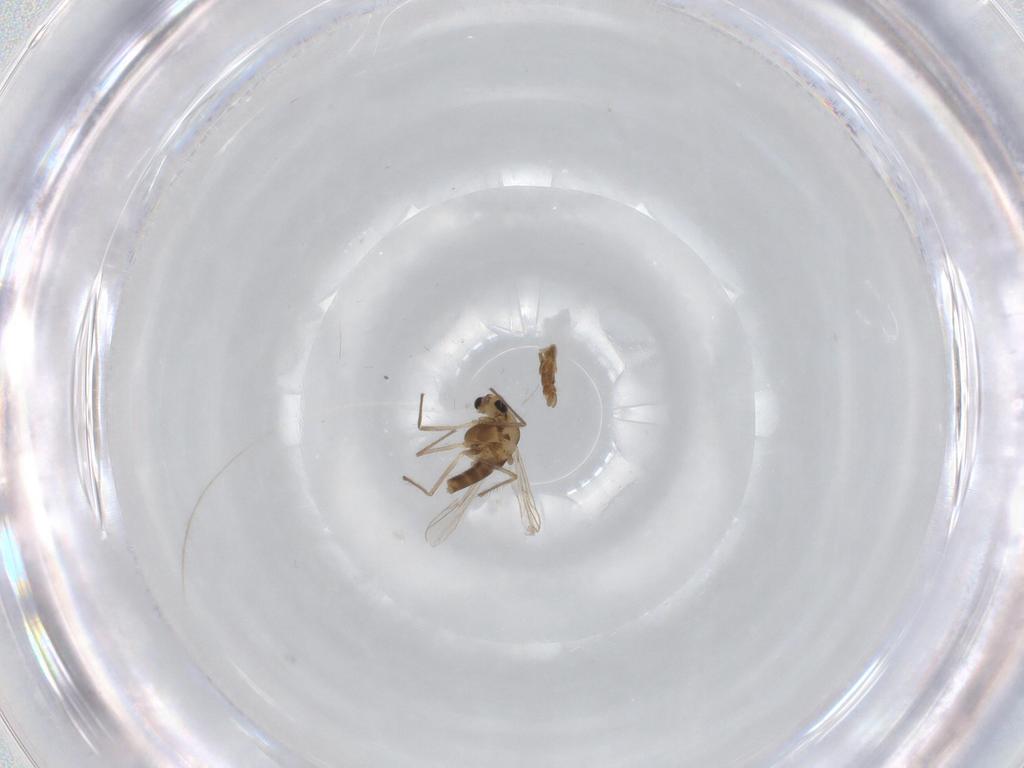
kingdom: Animalia
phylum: Arthropoda
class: Insecta
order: Diptera
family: Chironomidae
